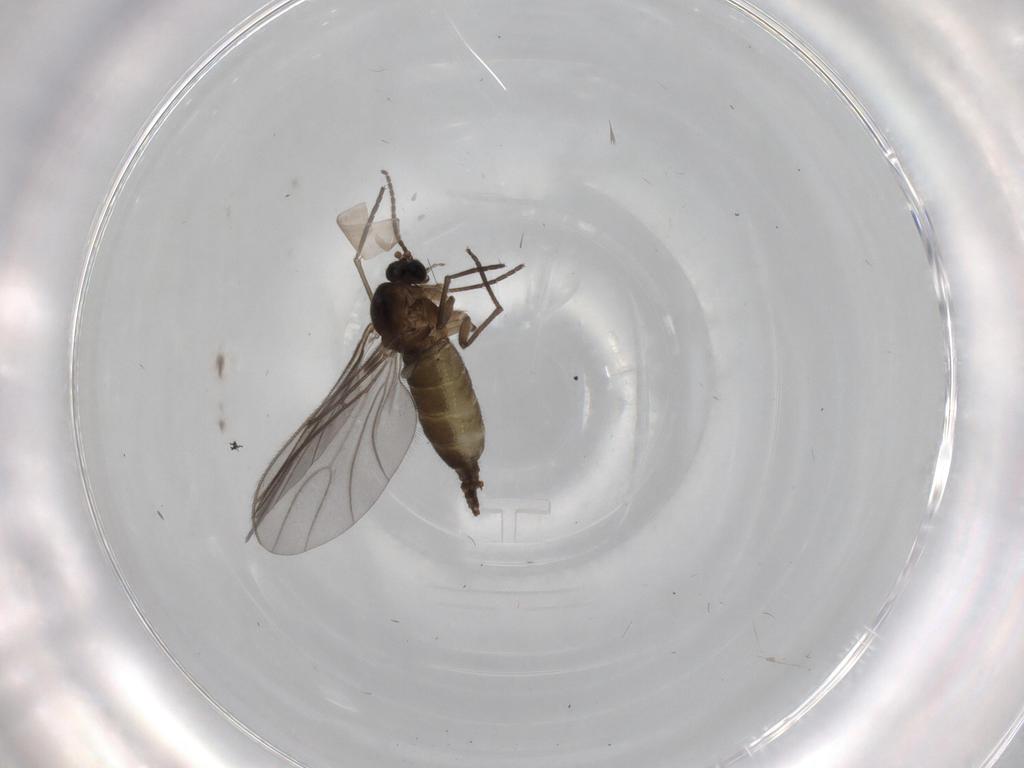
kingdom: Animalia
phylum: Arthropoda
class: Insecta
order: Diptera
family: Cecidomyiidae
